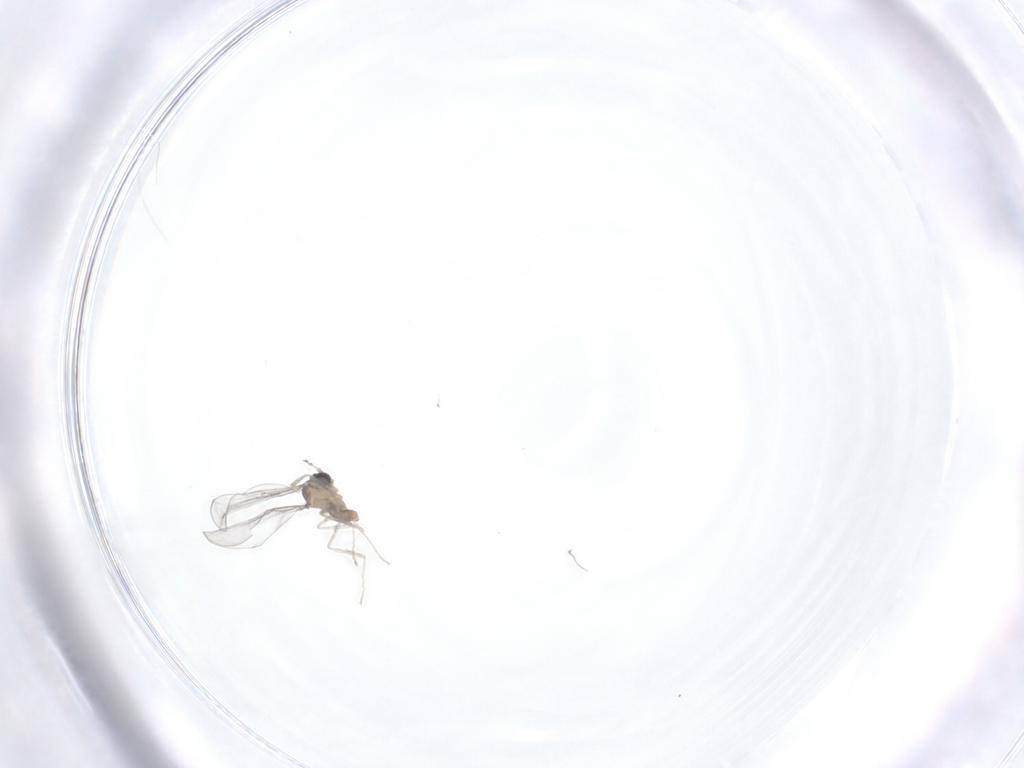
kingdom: Animalia
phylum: Arthropoda
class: Insecta
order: Diptera
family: Cecidomyiidae
